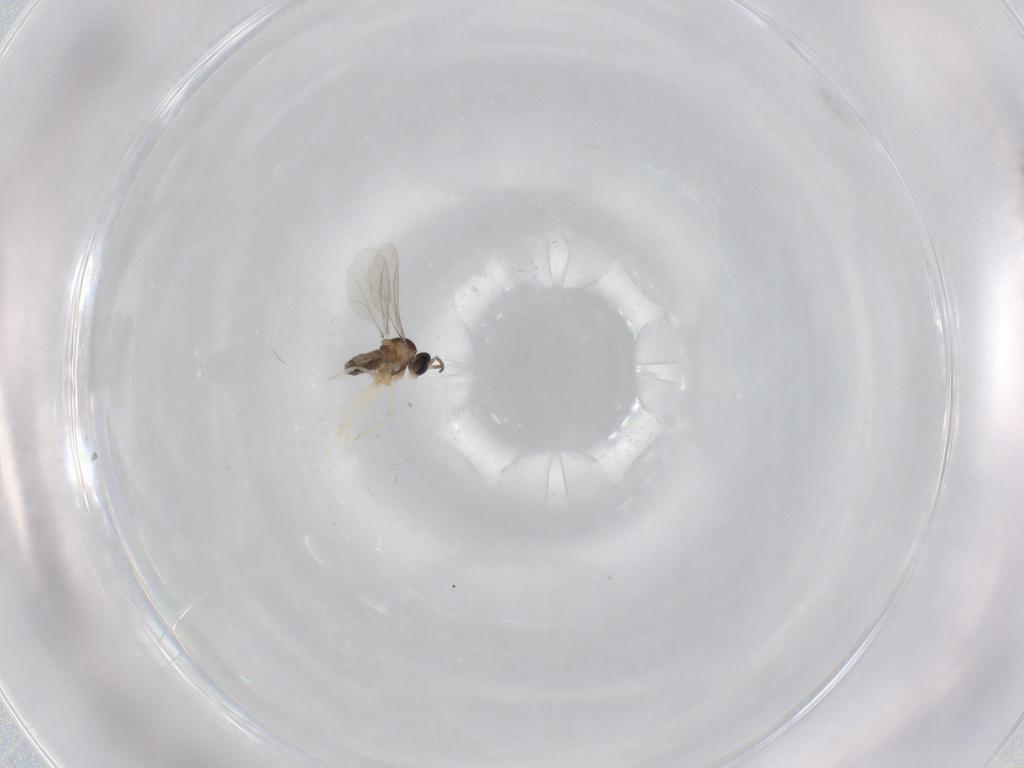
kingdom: Animalia
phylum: Arthropoda
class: Insecta
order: Diptera
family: Cecidomyiidae
